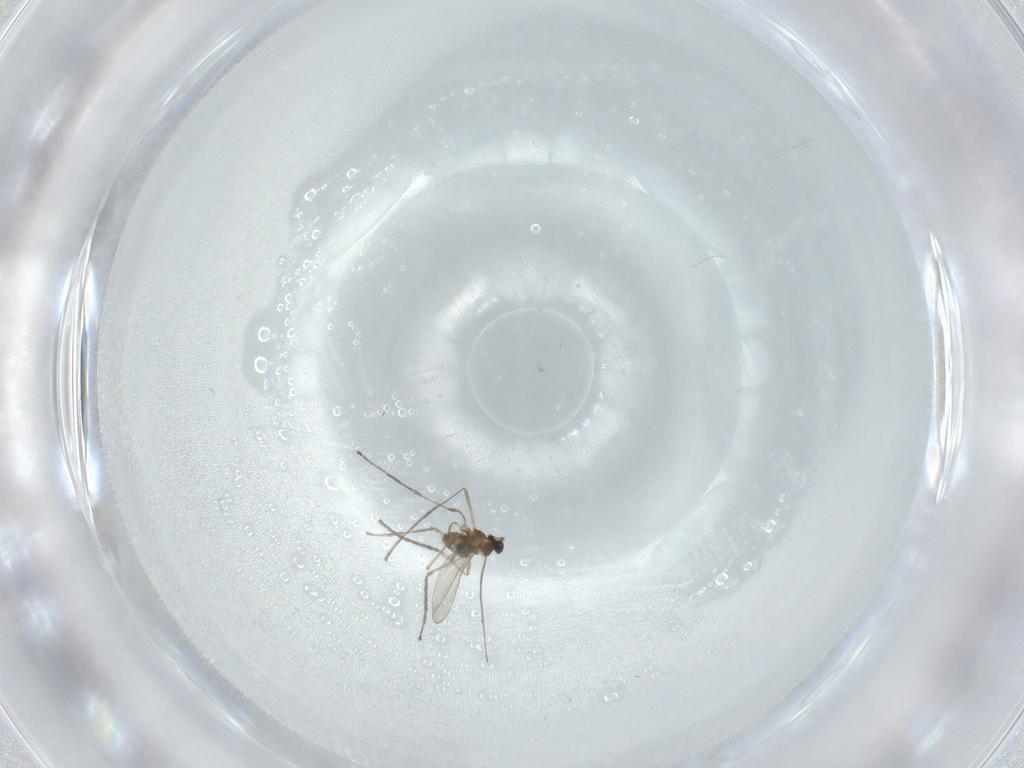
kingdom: Animalia
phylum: Arthropoda
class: Insecta
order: Diptera
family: Cecidomyiidae
